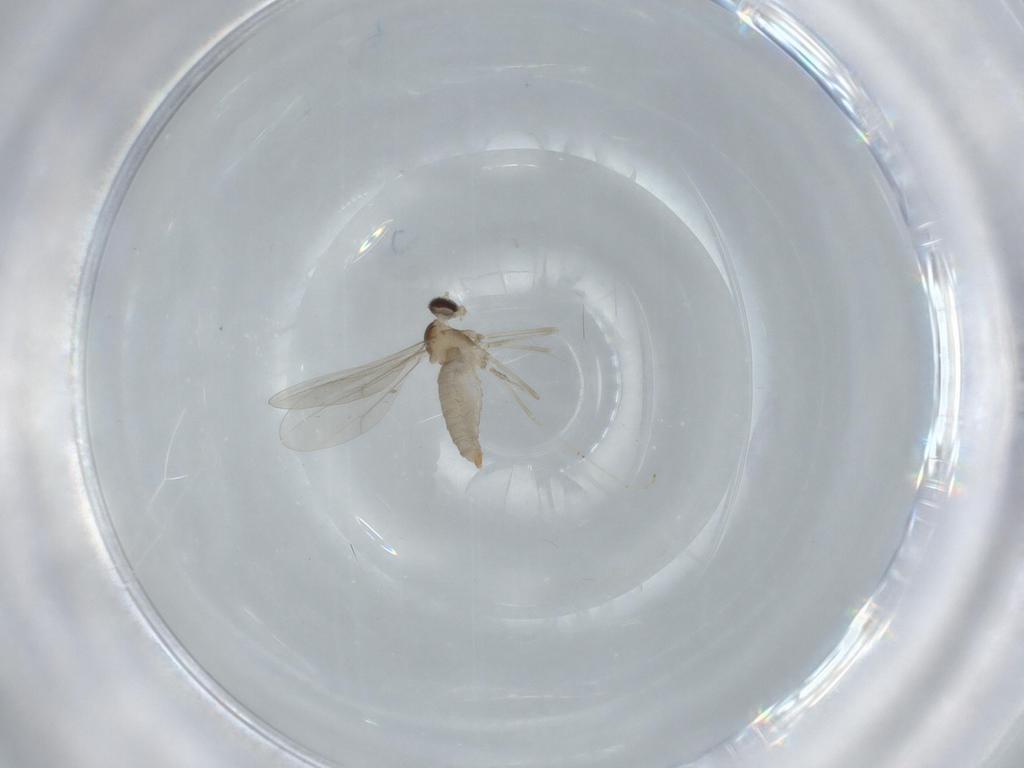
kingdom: Animalia
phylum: Arthropoda
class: Insecta
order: Diptera
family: Cecidomyiidae
